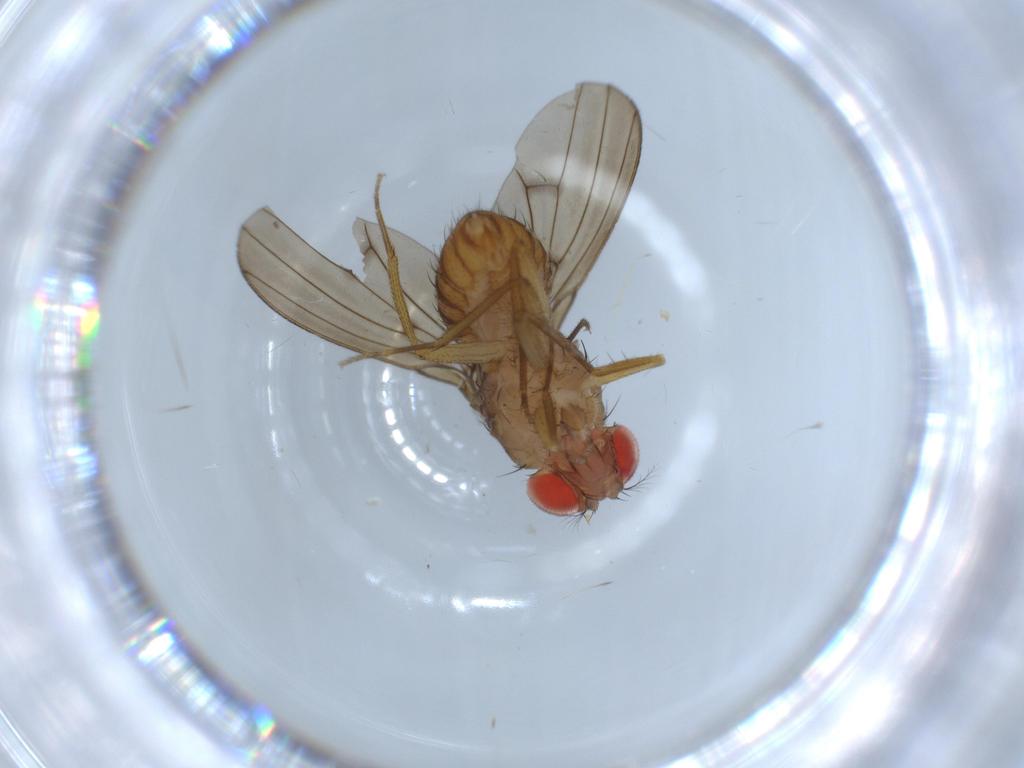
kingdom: Animalia
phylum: Arthropoda
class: Insecta
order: Diptera
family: Drosophilidae
